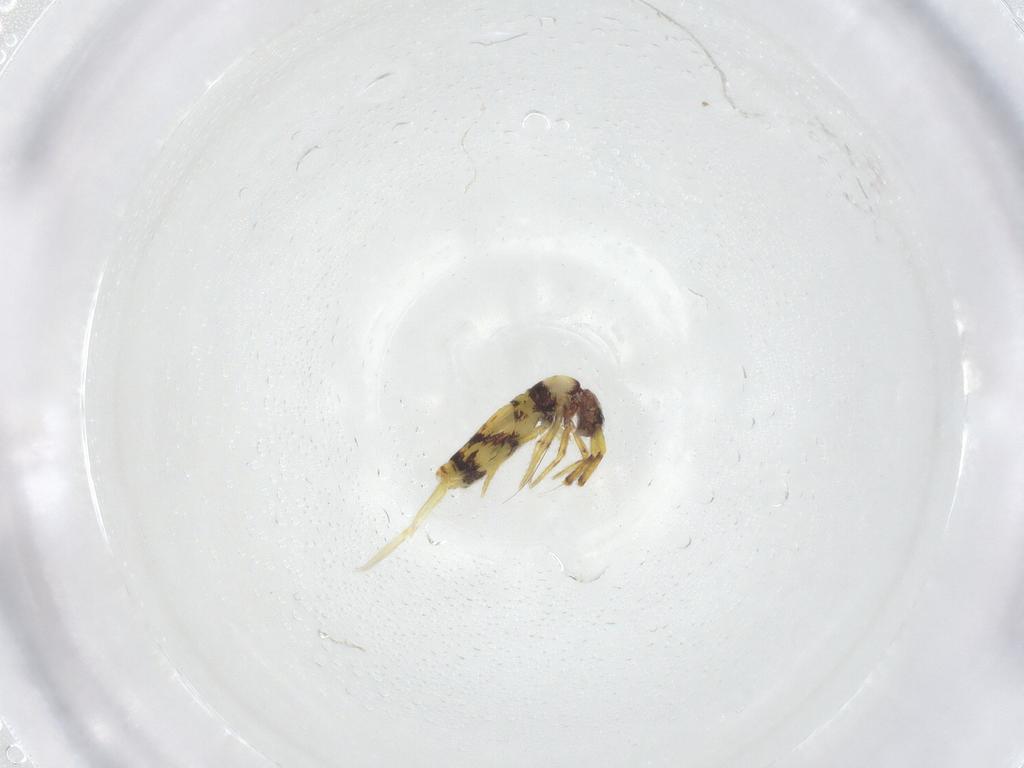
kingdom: Animalia
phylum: Arthropoda
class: Collembola
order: Entomobryomorpha
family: Entomobryidae
